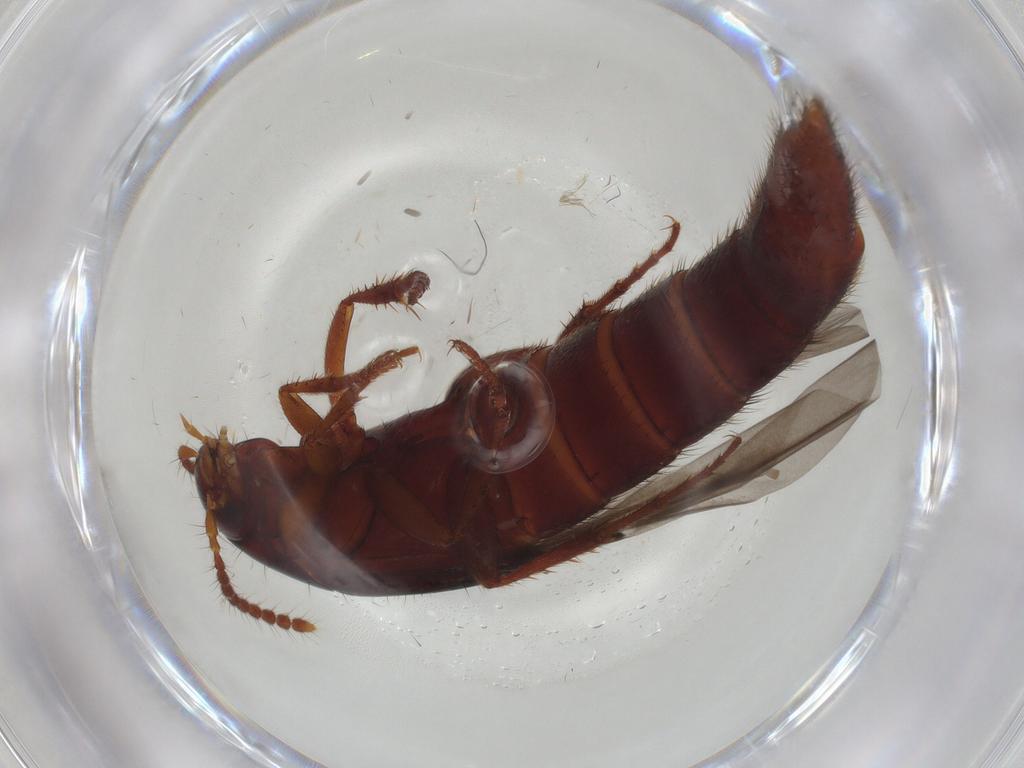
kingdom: Animalia
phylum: Arthropoda
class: Insecta
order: Coleoptera
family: Staphylinidae
